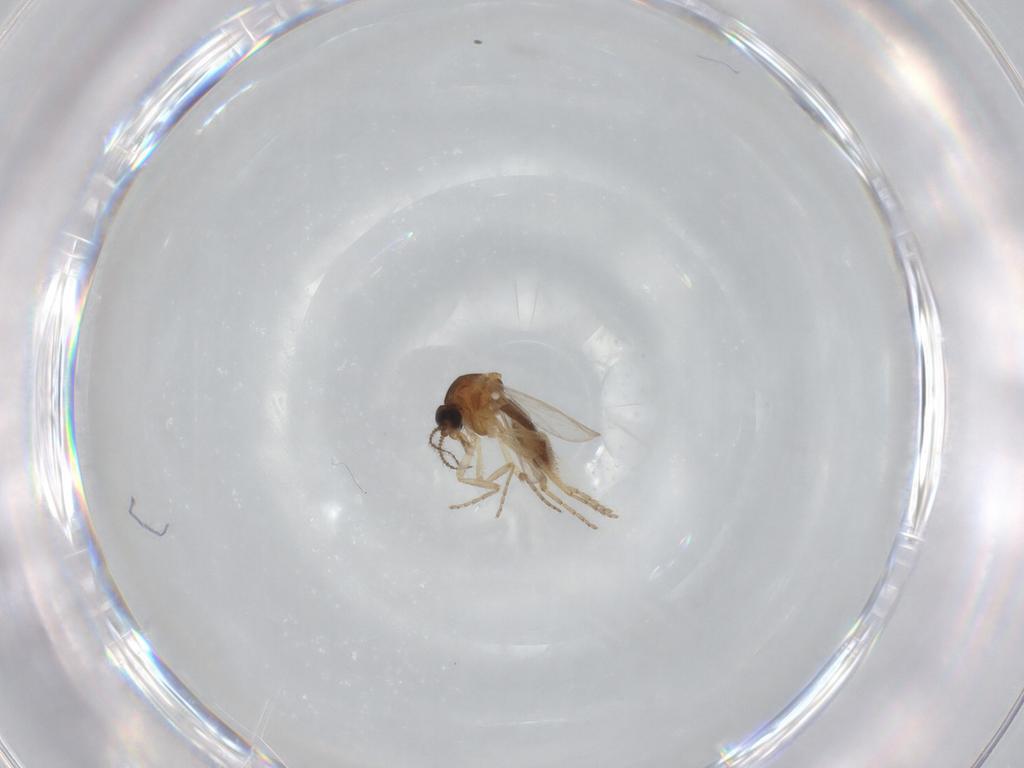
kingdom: Animalia
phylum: Arthropoda
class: Insecta
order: Diptera
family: Ceratopogonidae
